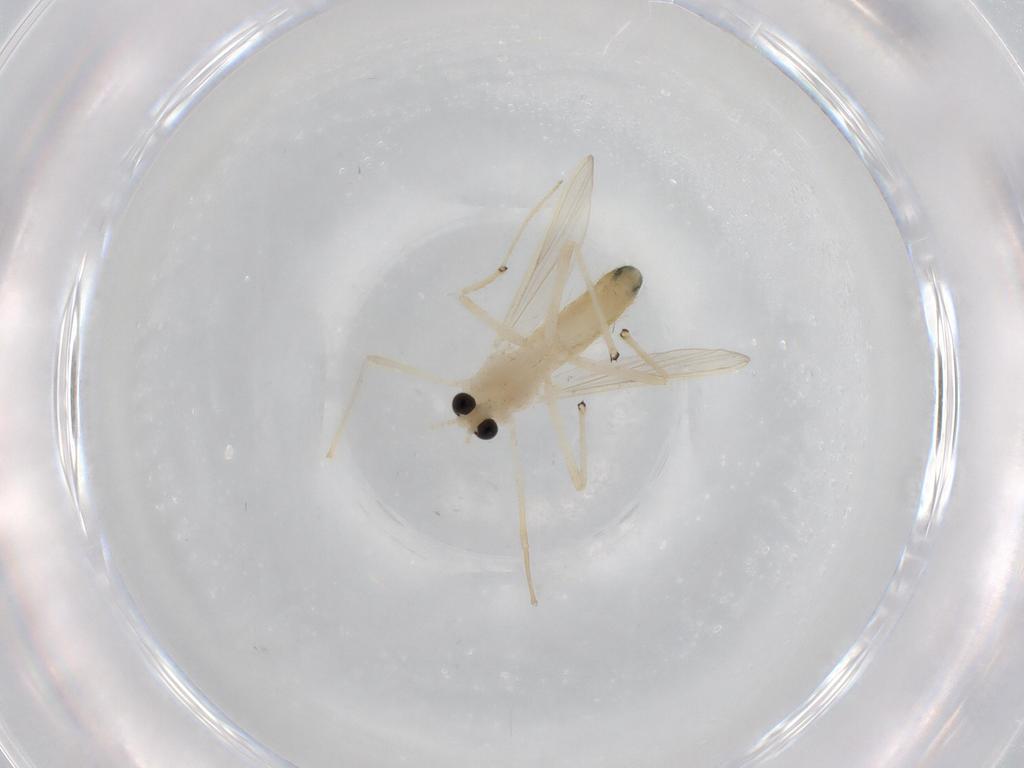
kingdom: Animalia
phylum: Arthropoda
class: Insecta
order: Diptera
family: Chironomidae
